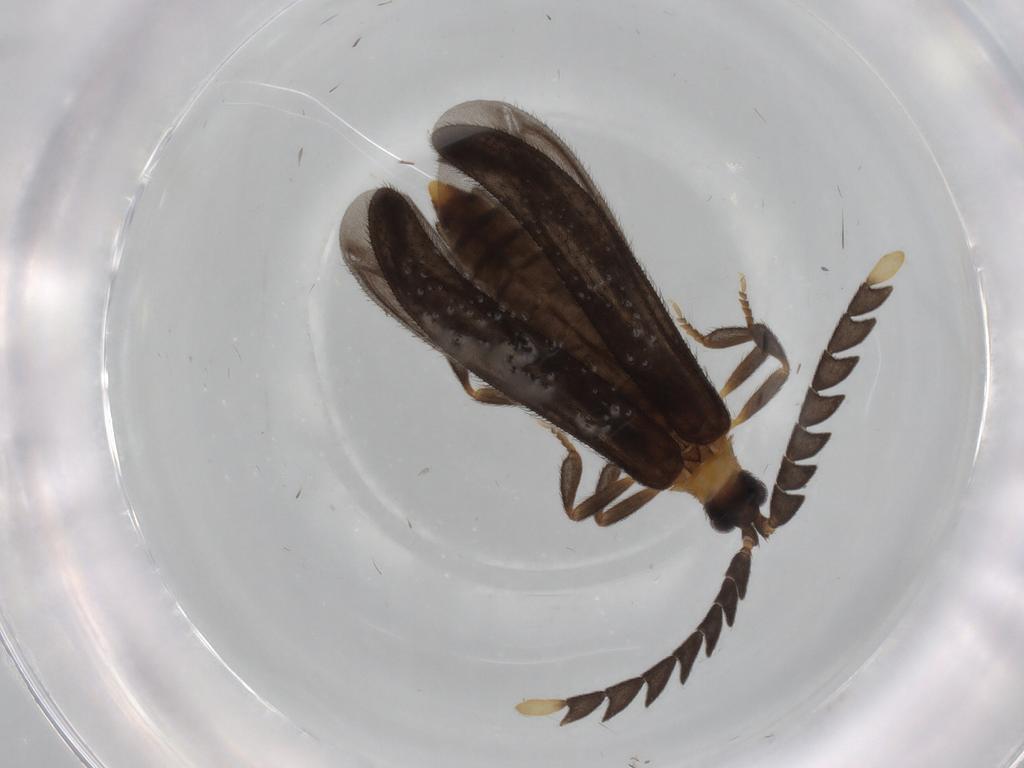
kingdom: Animalia
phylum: Arthropoda
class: Insecta
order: Coleoptera
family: Lycidae
